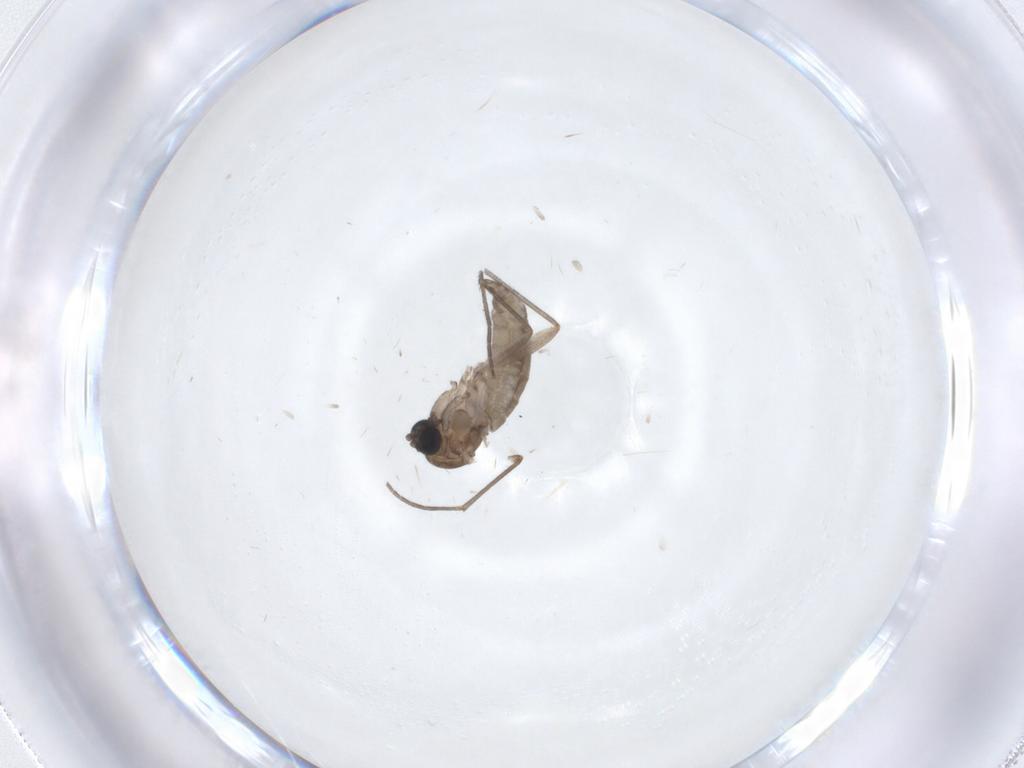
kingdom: Animalia
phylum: Arthropoda
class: Insecta
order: Diptera
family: Sciaridae
